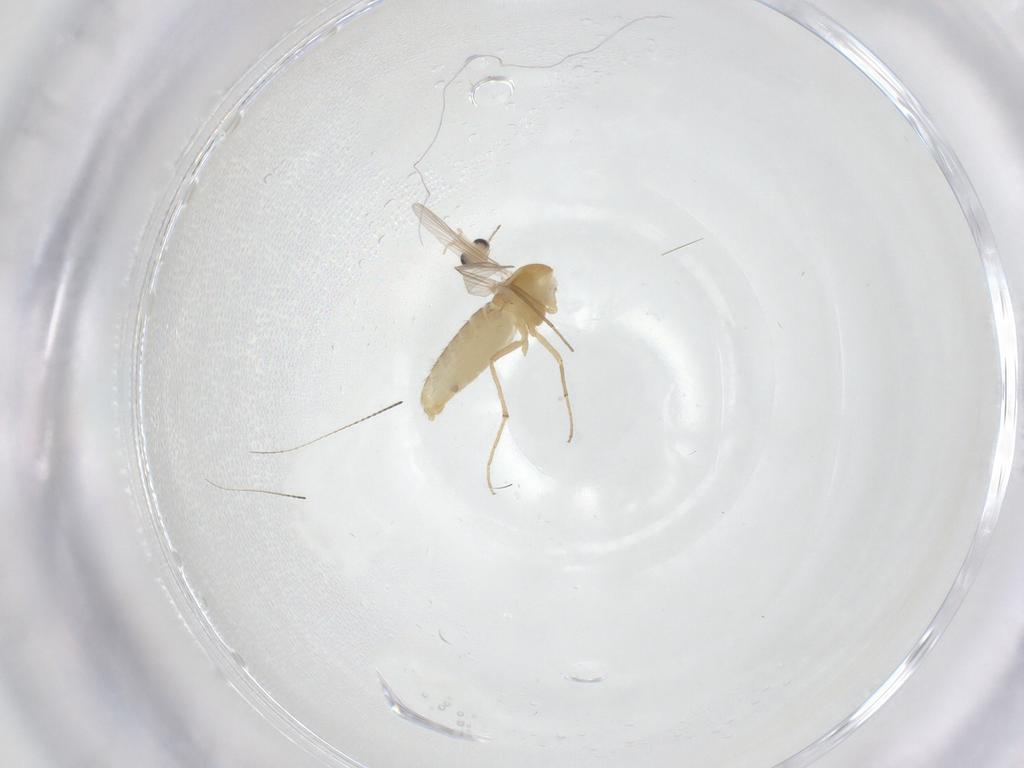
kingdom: Animalia
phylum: Arthropoda
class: Insecta
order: Diptera
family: Chironomidae
